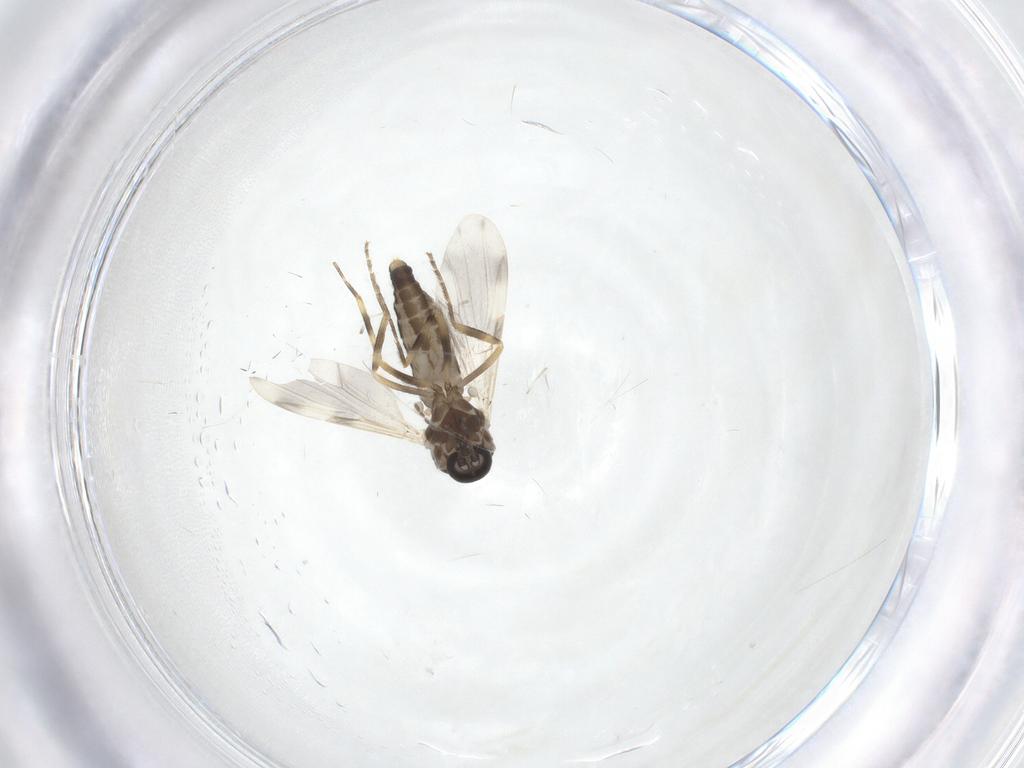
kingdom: Animalia
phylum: Arthropoda
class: Insecta
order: Diptera
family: Ceratopogonidae
